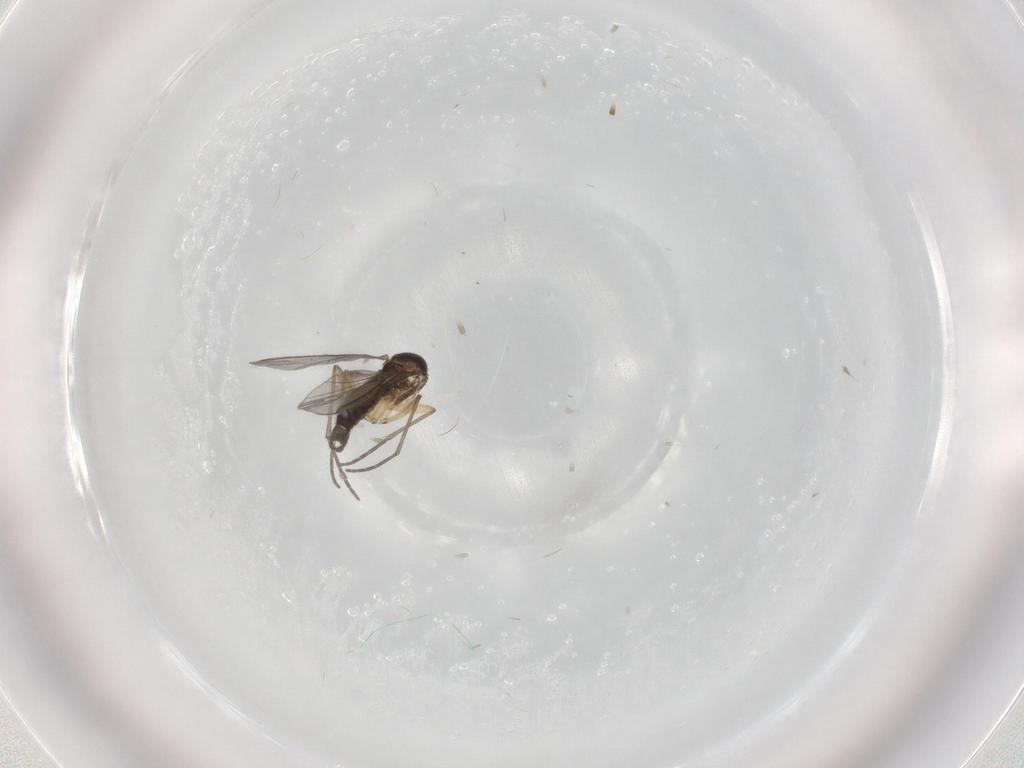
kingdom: Animalia
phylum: Arthropoda
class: Insecta
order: Diptera
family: Cecidomyiidae
